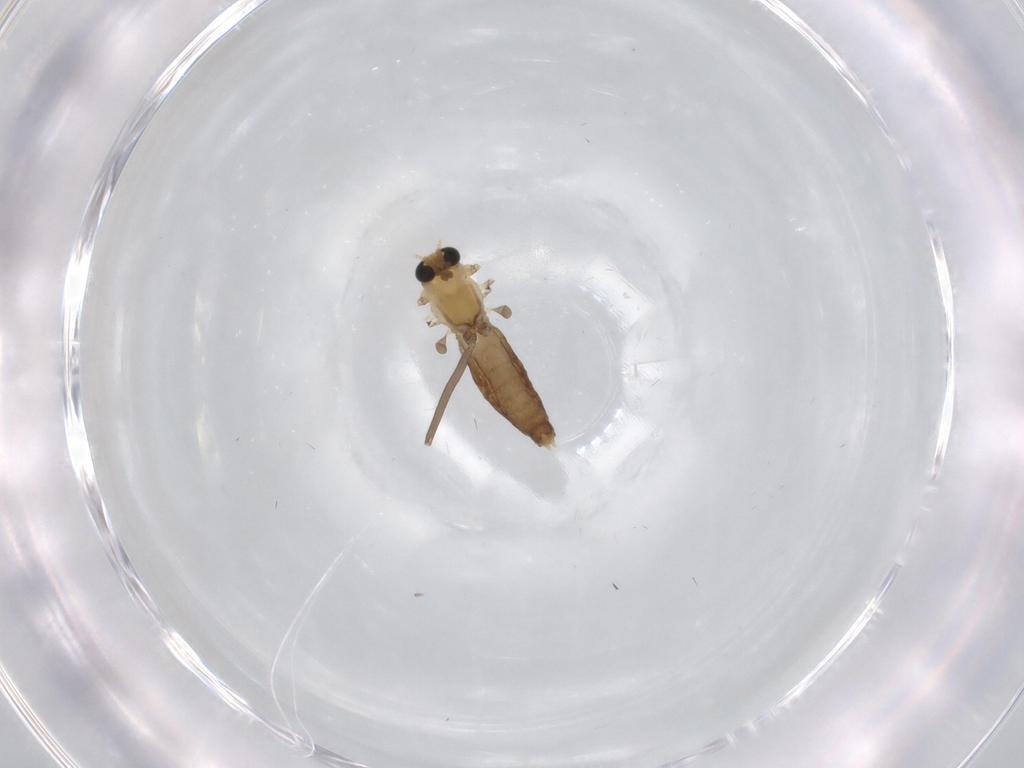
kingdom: Animalia
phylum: Arthropoda
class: Insecta
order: Diptera
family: Chironomidae
